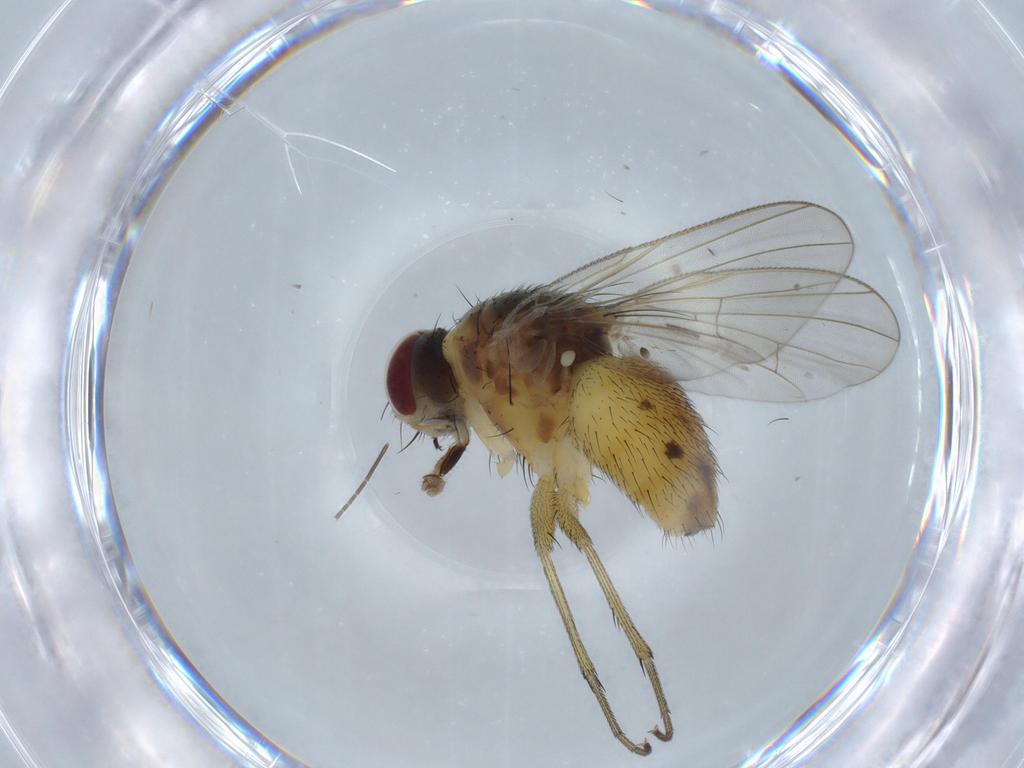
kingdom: Animalia
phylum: Arthropoda
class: Insecta
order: Diptera
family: Muscidae
